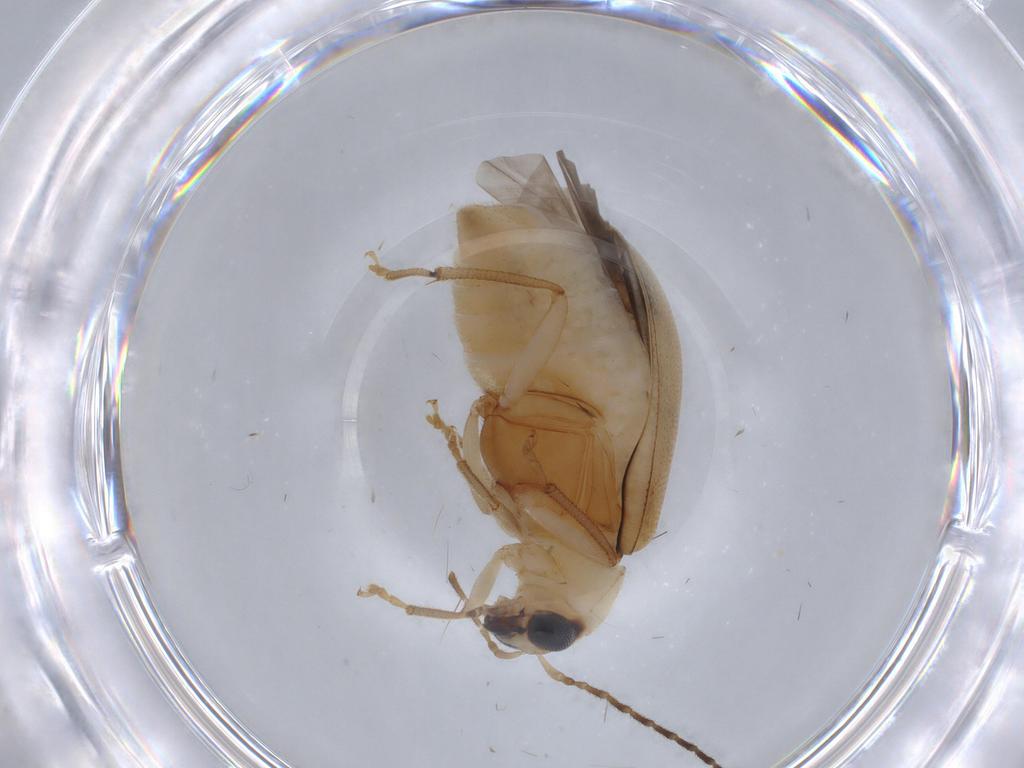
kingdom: Animalia
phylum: Arthropoda
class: Insecta
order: Coleoptera
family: Chrysomelidae
